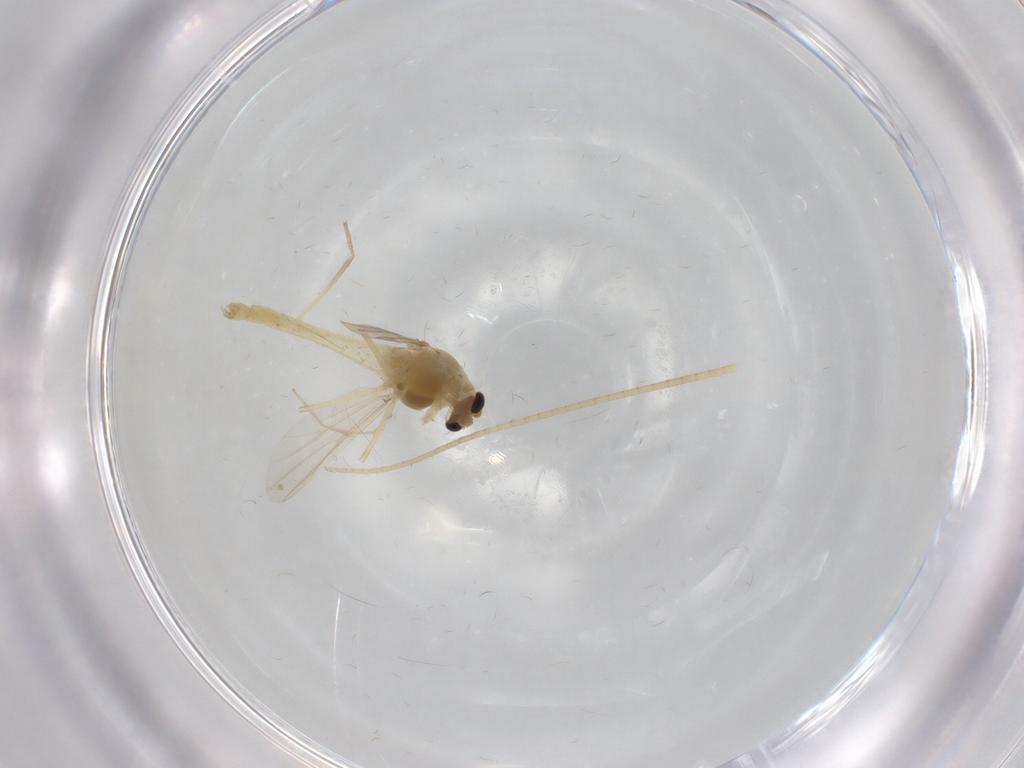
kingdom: Animalia
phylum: Arthropoda
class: Insecta
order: Diptera
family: Chironomidae
